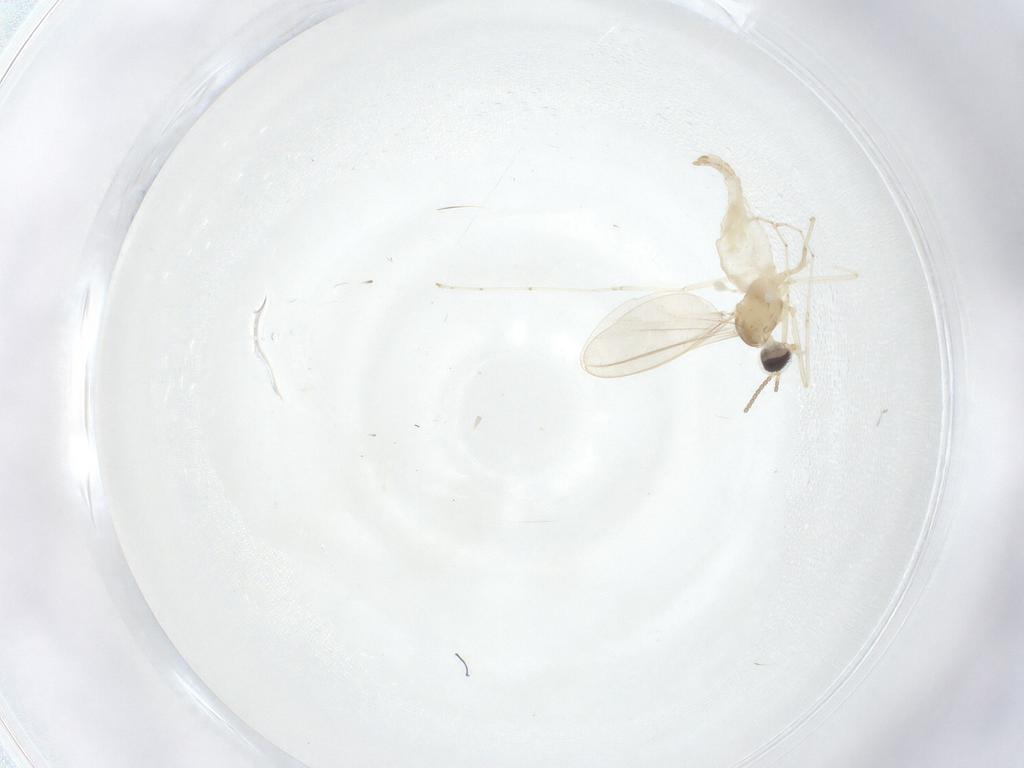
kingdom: Animalia
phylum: Arthropoda
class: Insecta
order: Diptera
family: Cecidomyiidae
